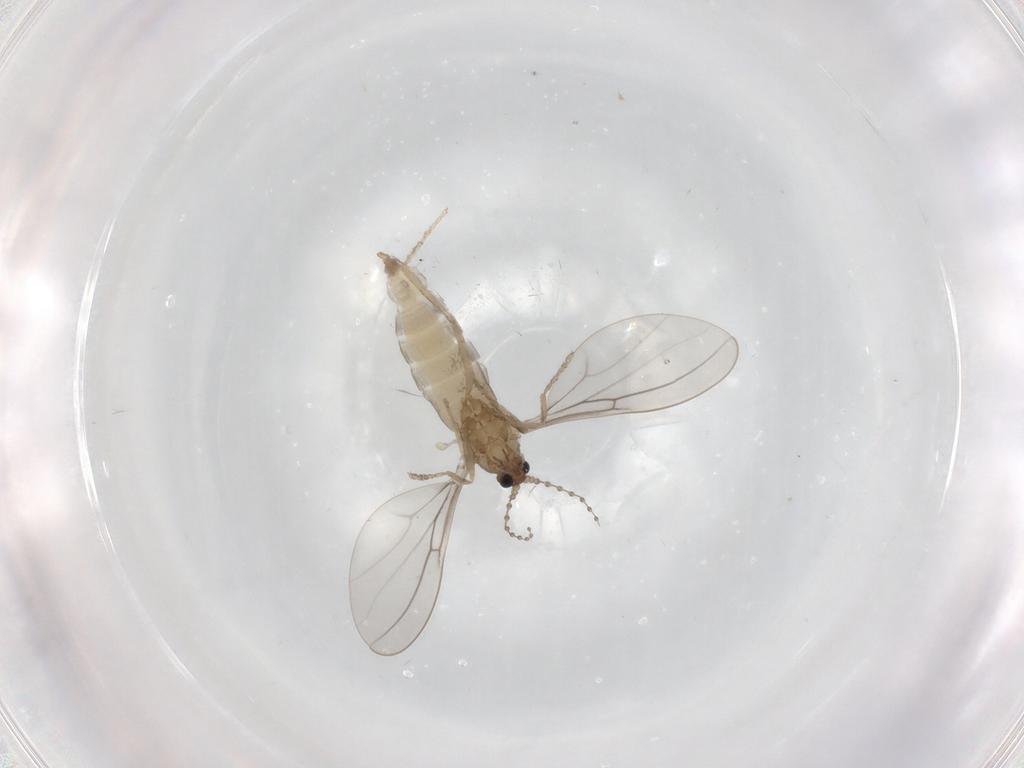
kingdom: Animalia
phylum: Arthropoda
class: Insecta
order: Diptera
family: Cecidomyiidae
